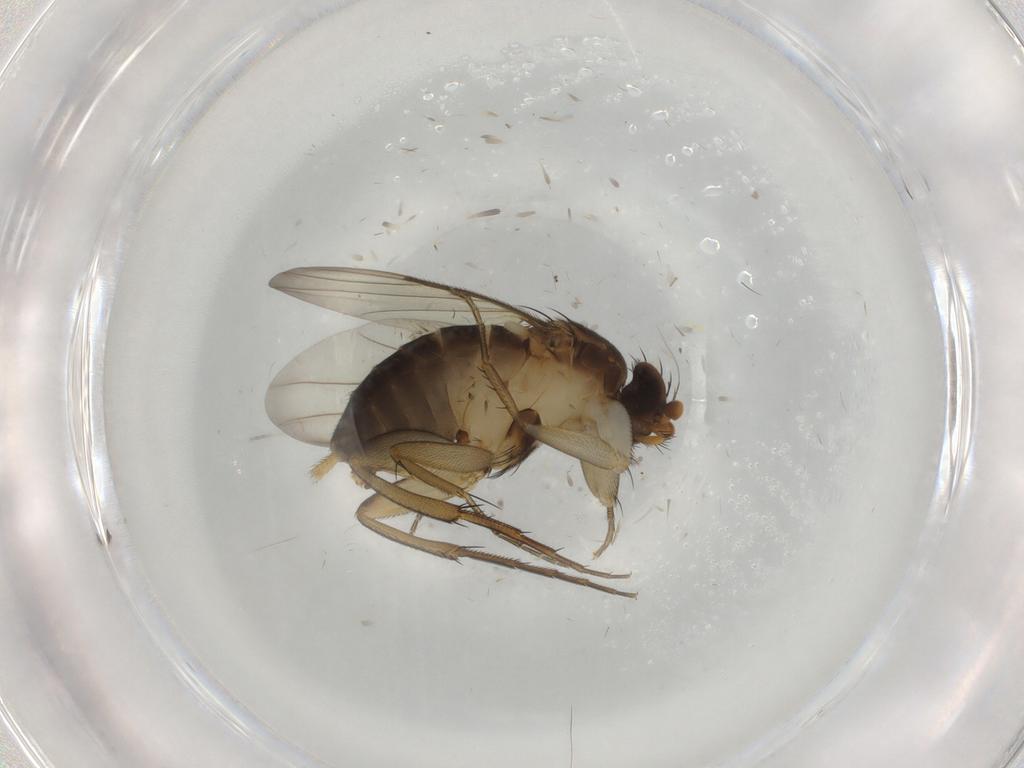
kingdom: Animalia
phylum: Arthropoda
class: Insecta
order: Diptera
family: Phoridae
